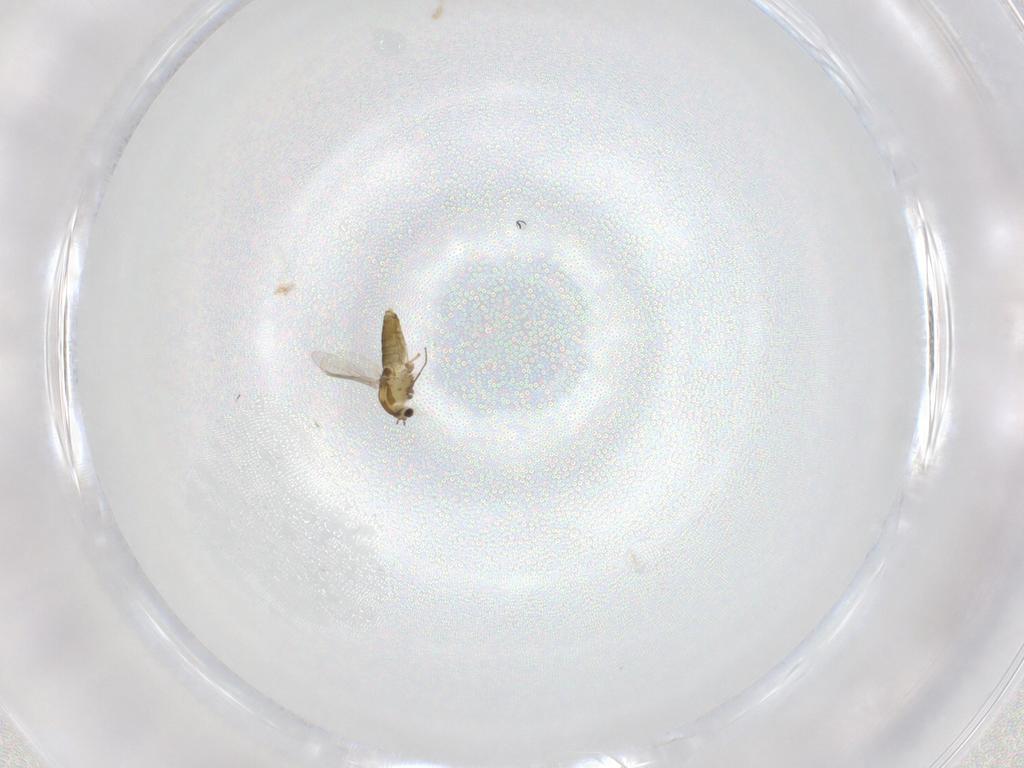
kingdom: Animalia
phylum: Arthropoda
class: Insecta
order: Diptera
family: Chironomidae
